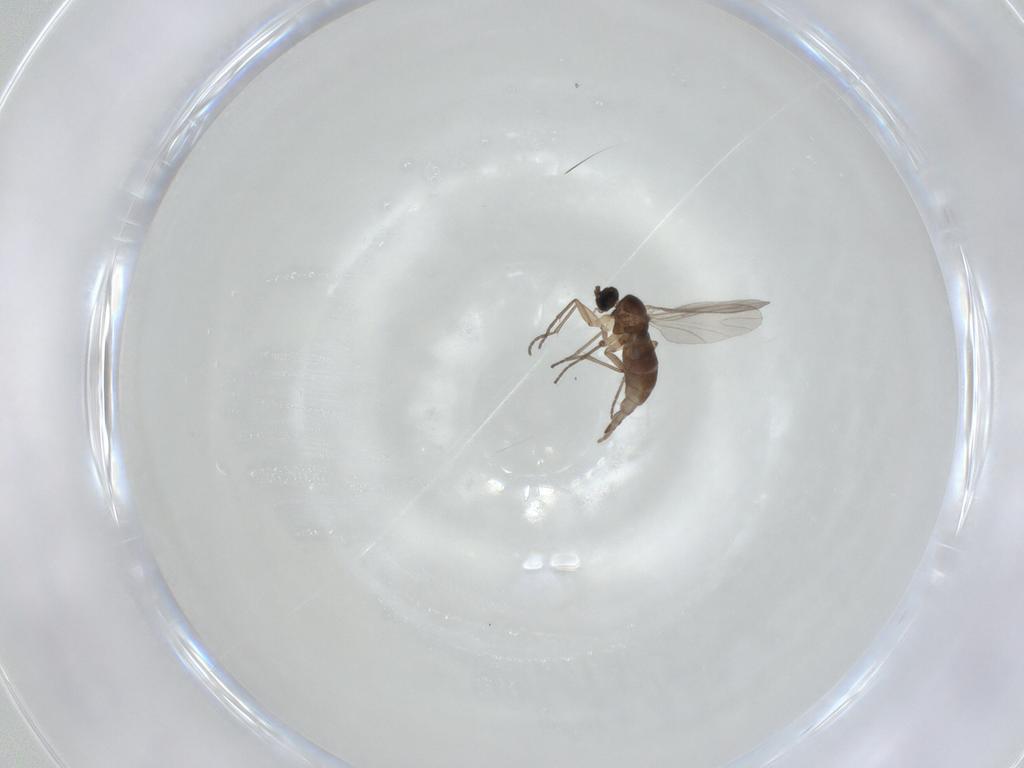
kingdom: Animalia
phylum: Arthropoda
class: Insecta
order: Diptera
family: Sciaridae
